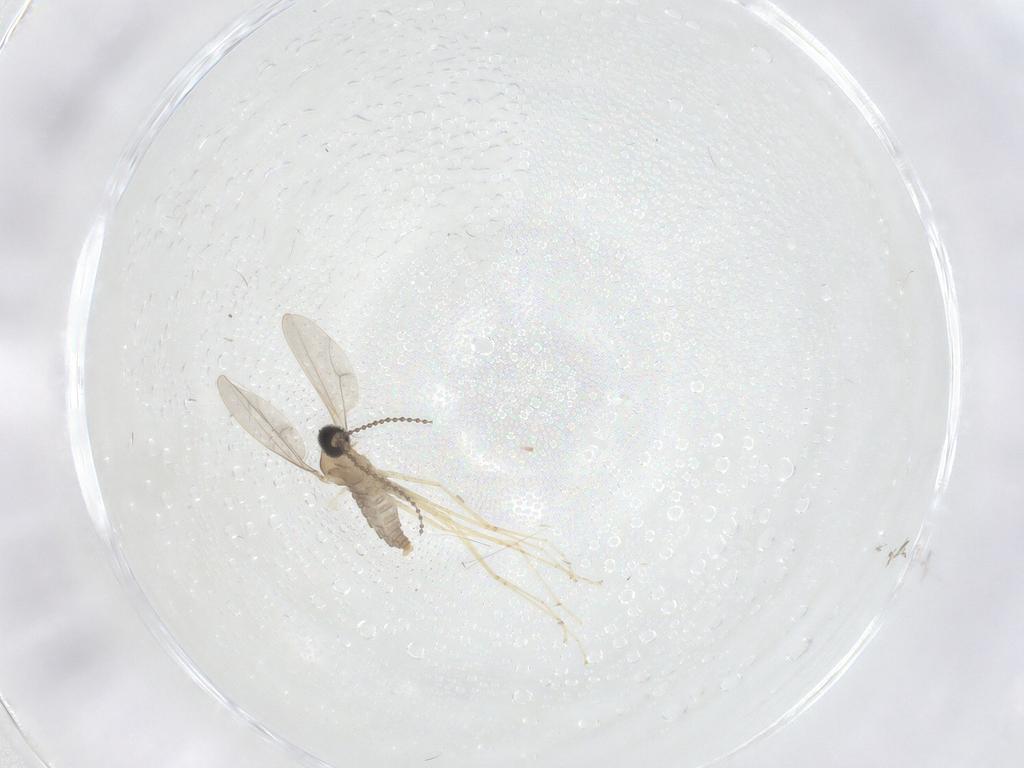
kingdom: Animalia
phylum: Arthropoda
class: Insecta
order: Diptera
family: Cecidomyiidae
